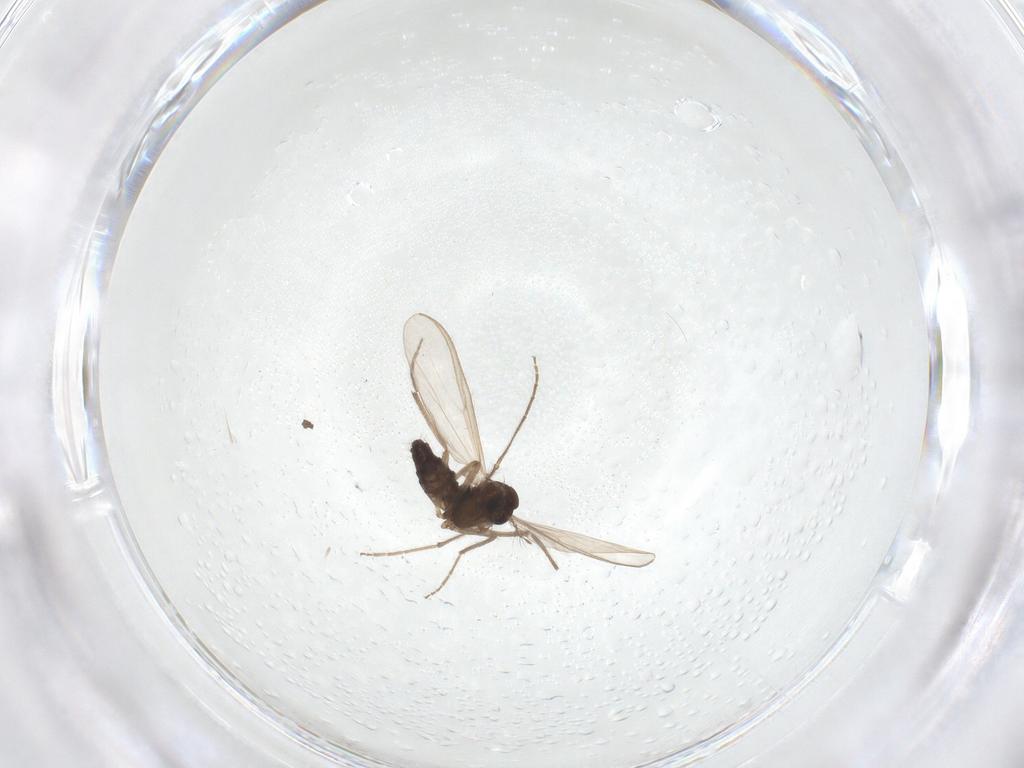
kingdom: Animalia
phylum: Arthropoda
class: Insecta
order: Diptera
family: Chironomidae
